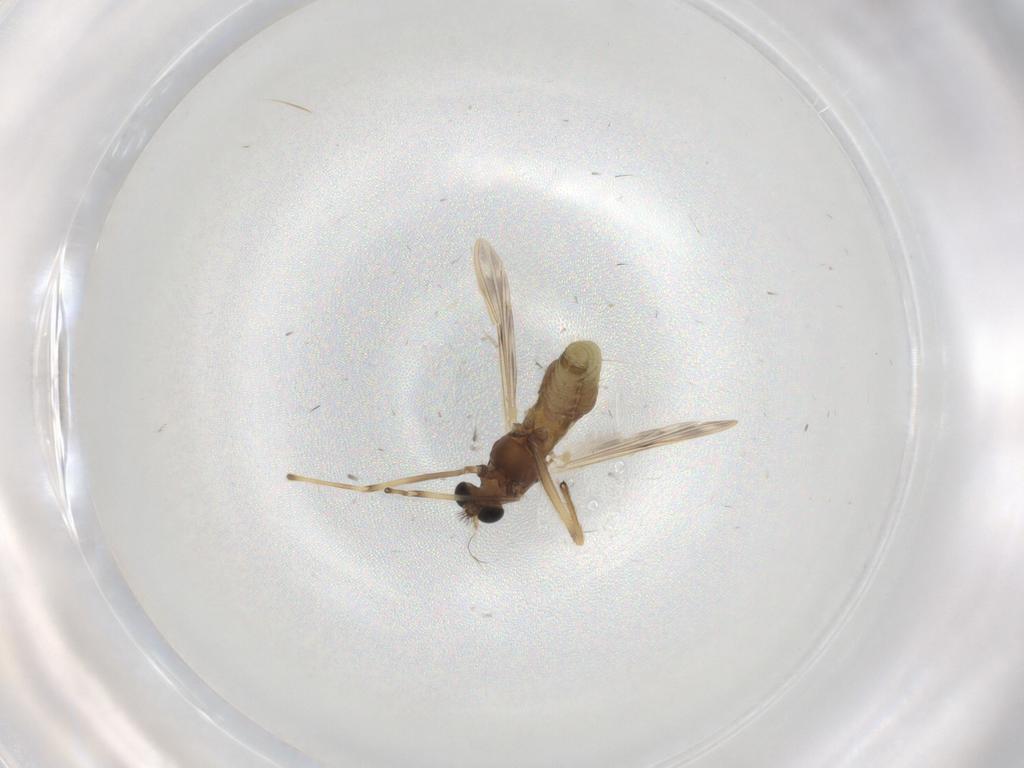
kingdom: Animalia
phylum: Arthropoda
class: Insecta
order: Diptera
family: Chironomidae
